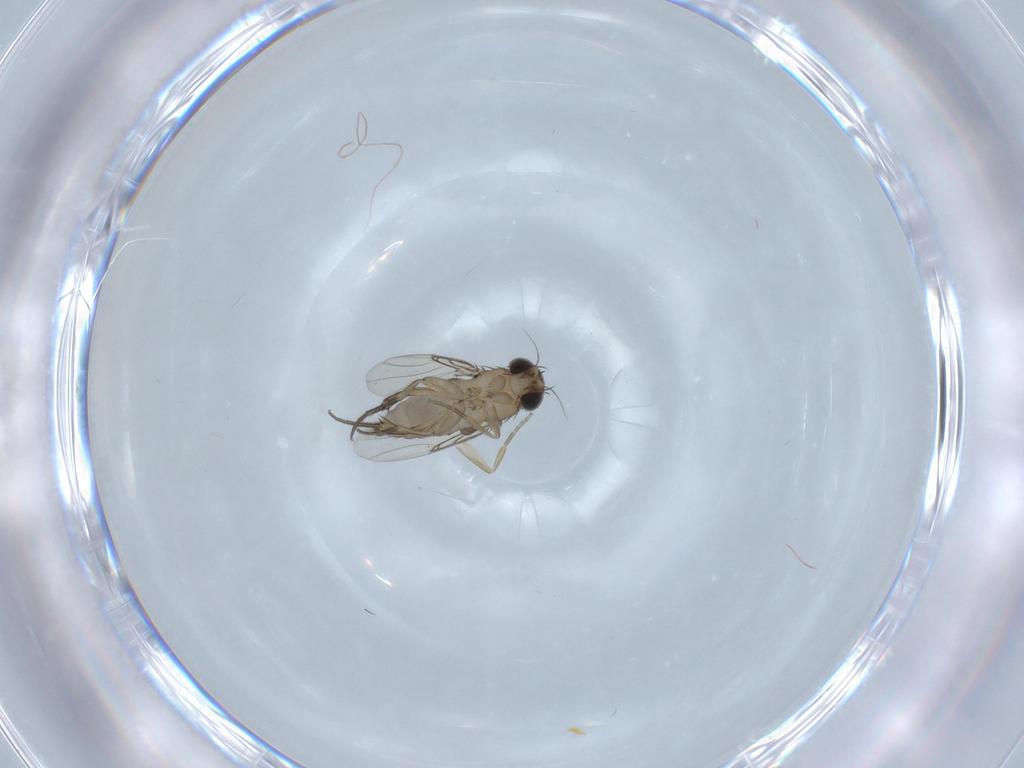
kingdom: Animalia
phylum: Arthropoda
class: Insecta
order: Diptera
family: Phoridae
